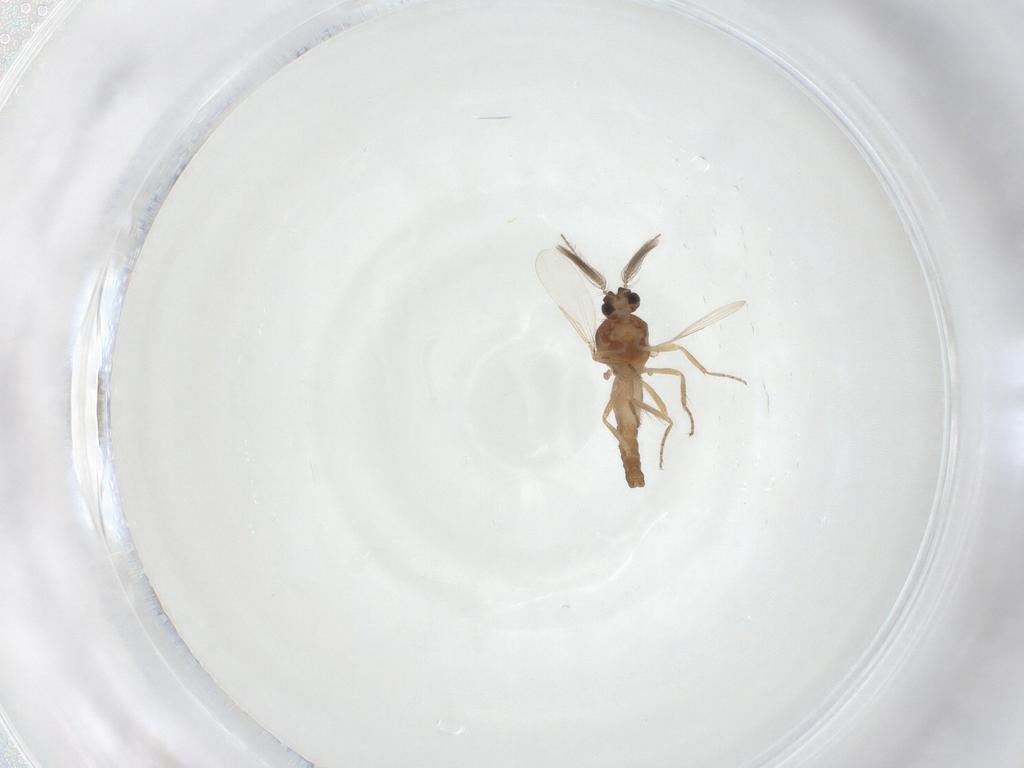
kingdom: Animalia
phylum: Arthropoda
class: Insecta
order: Diptera
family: Ceratopogonidae
